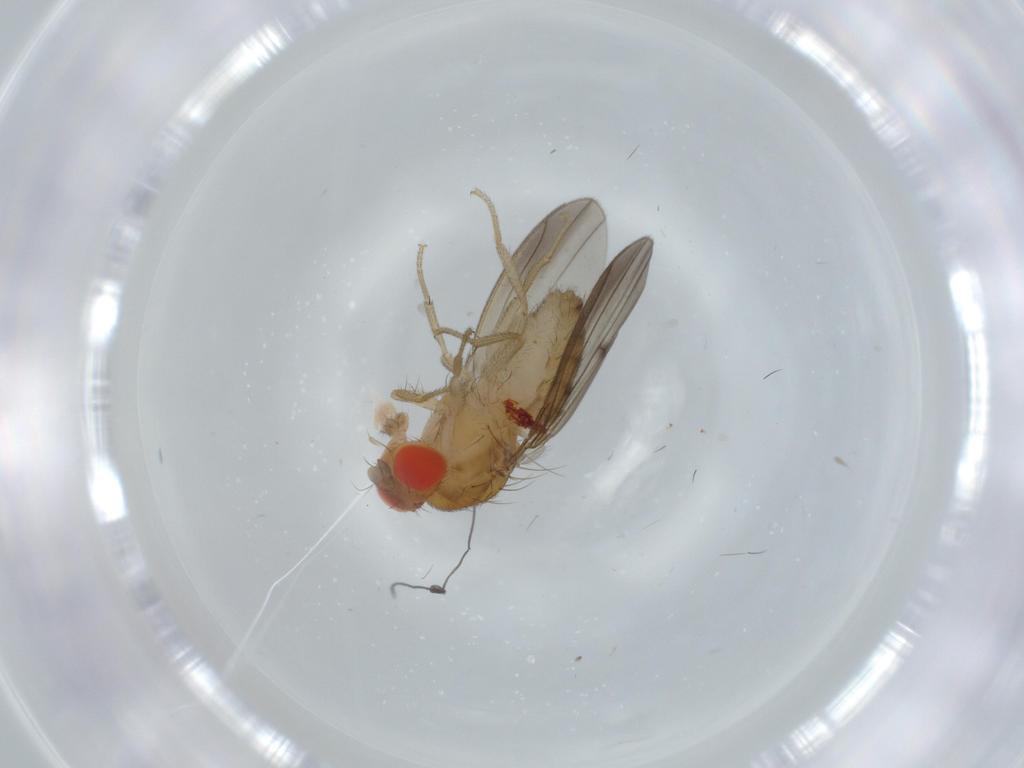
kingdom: Animalia
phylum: Arthropoda
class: Insecta
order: Diptera
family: Drosophilidae
